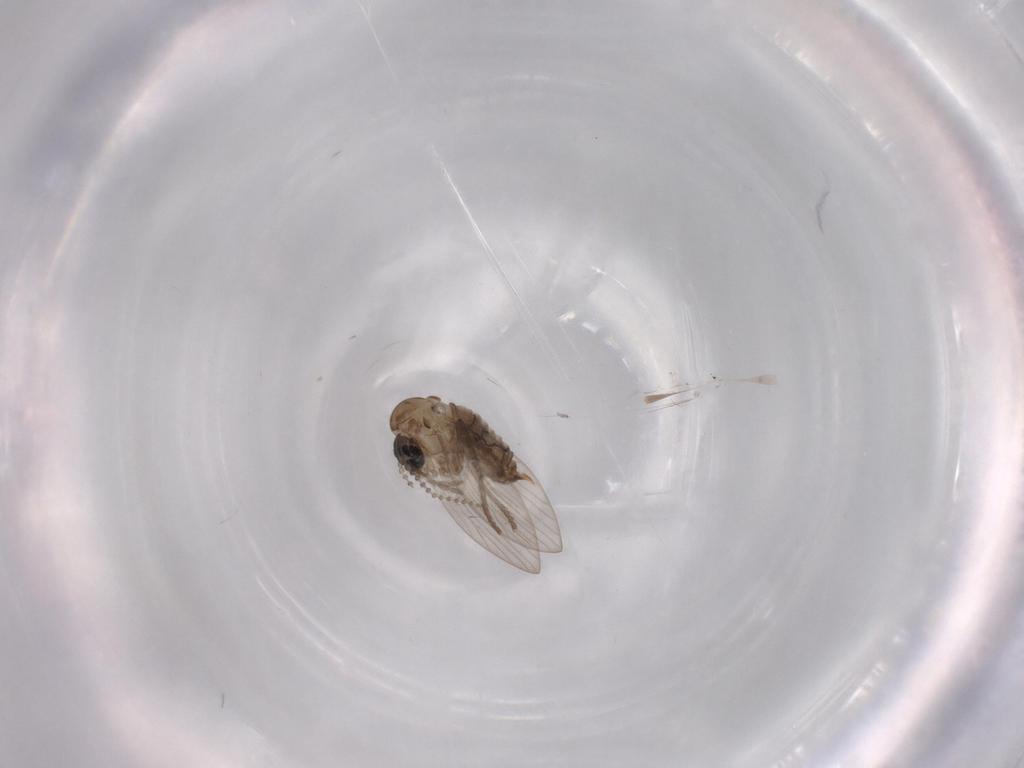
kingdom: Animalia
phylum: Arthropoda
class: Insecta
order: Diptera
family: Psychodidae
